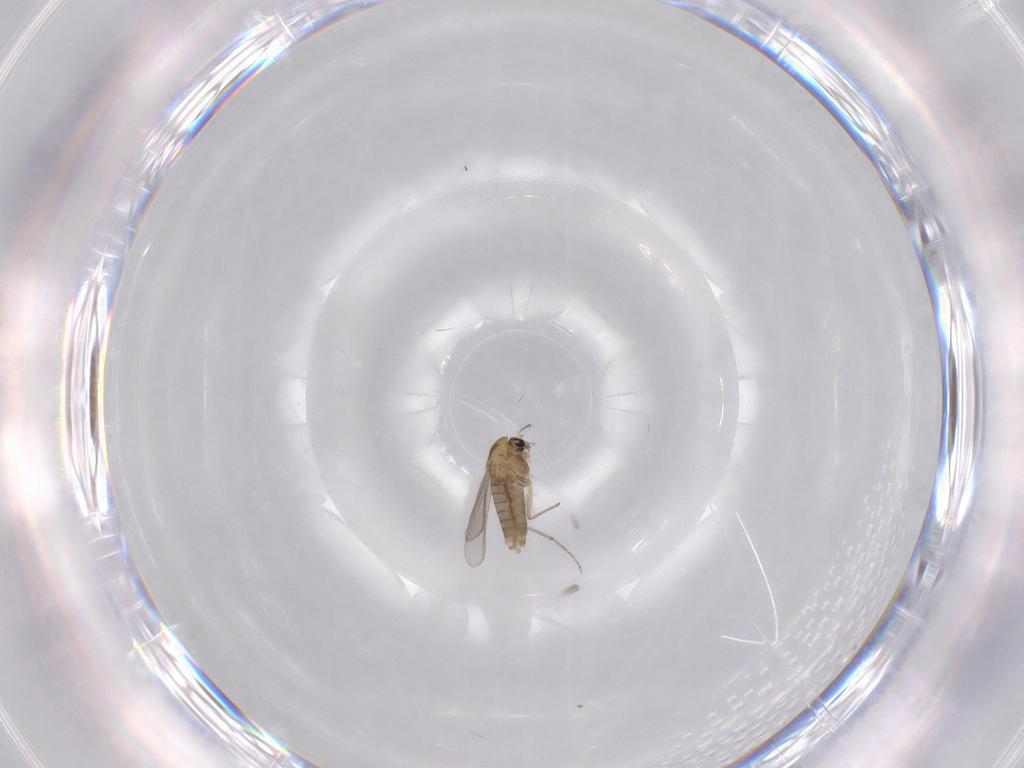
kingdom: Animalia
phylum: Arthropoda
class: Insecta
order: Diptera
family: Chironomidae
